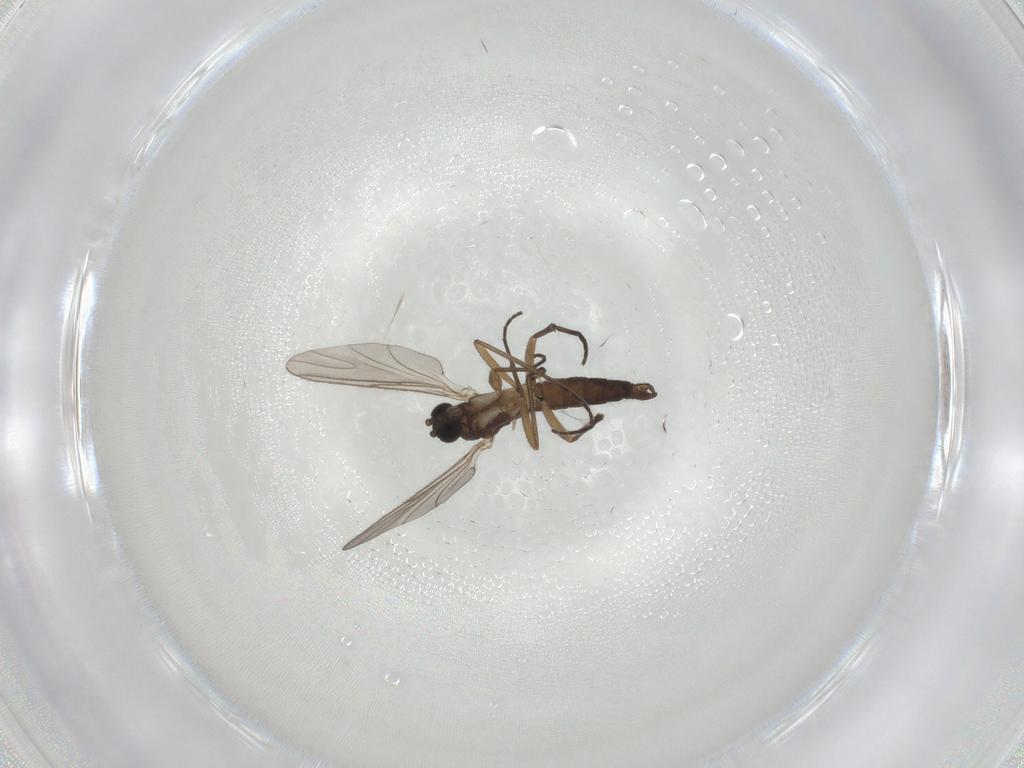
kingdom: Animalia
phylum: Arthropoda
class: Insecta
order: Diptera
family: Sciaridae
